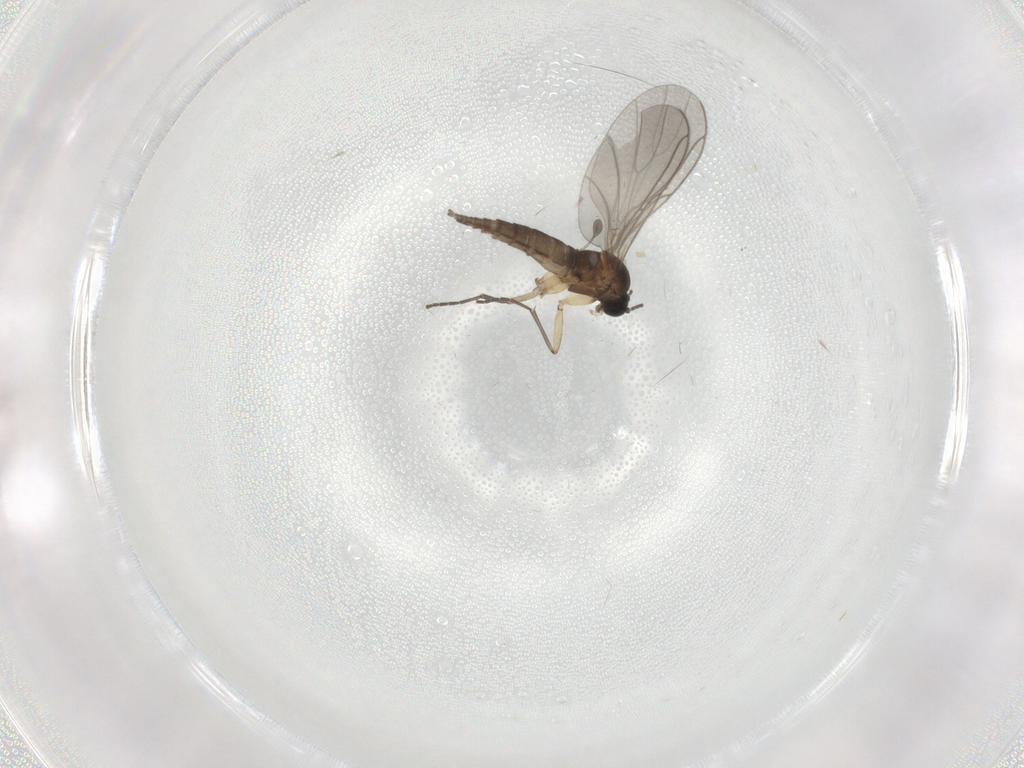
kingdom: Animalia
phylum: Arthropoda
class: Insecta
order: Diptera
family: Sciaridae
